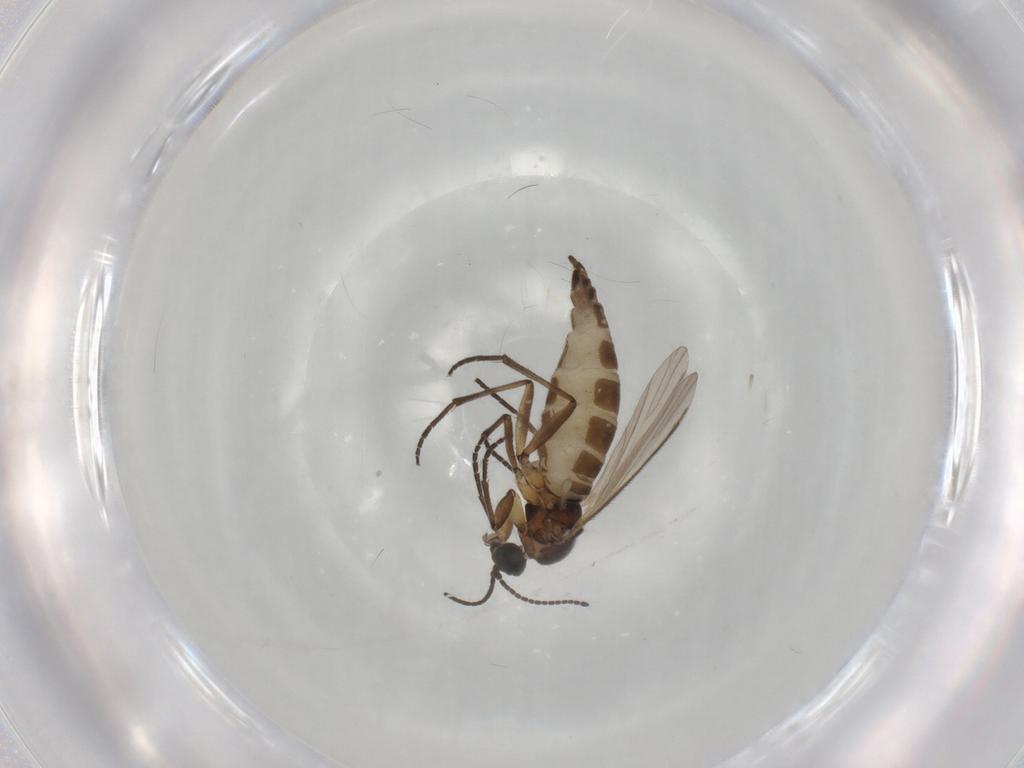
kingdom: Animalia
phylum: Arthropoda
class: Insecta
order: Diptera
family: Sciaridae
